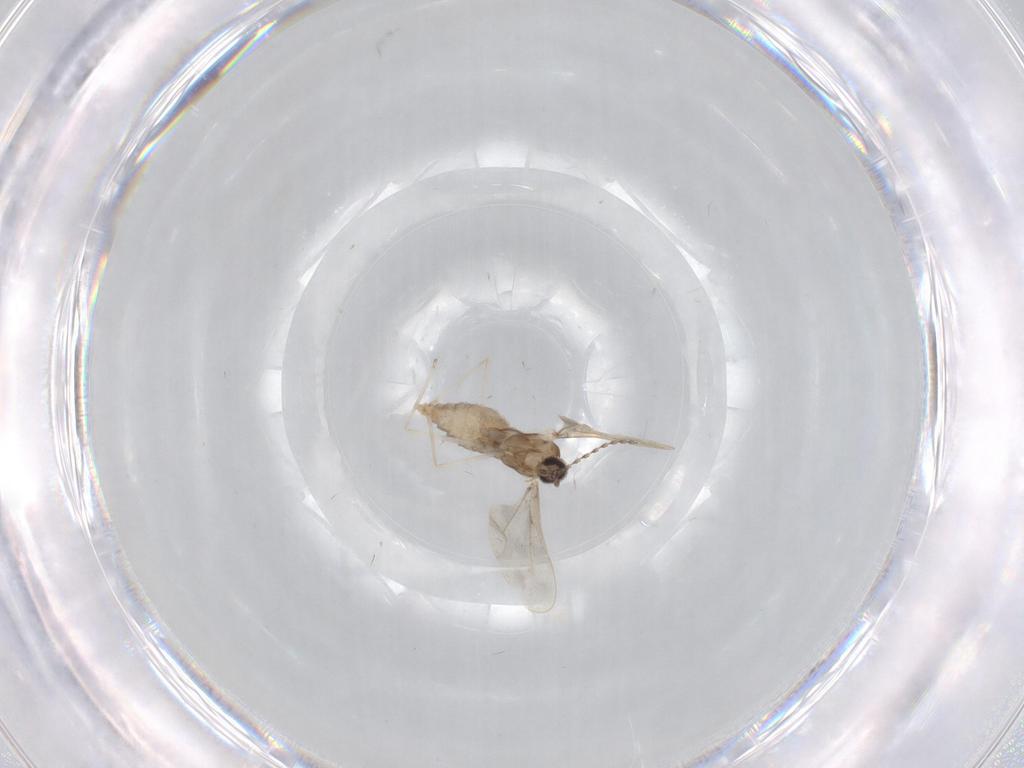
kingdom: Animalia
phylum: Arthropoda
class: Insecta
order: Diptera
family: Cecidomyiidae
